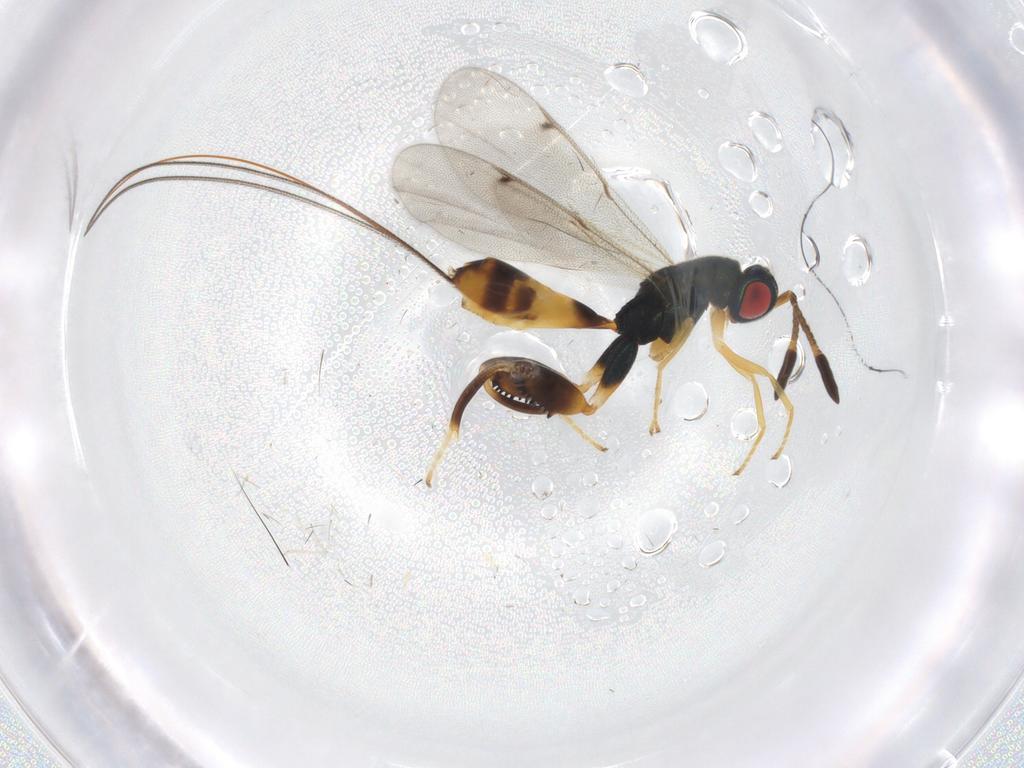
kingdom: Animalia
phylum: Arthropoda
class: Insecta
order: Hymenoptera
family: Torymidae
